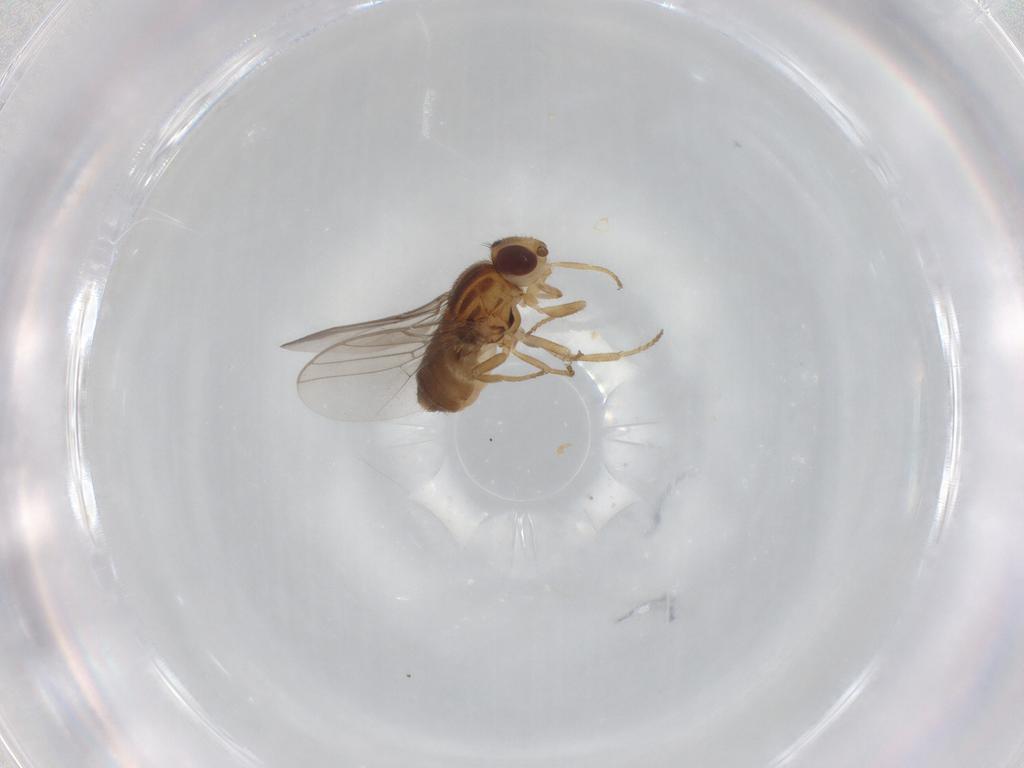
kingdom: Animalia
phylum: Arthropoda
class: Insecta
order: Diptera
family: Chloropidae
